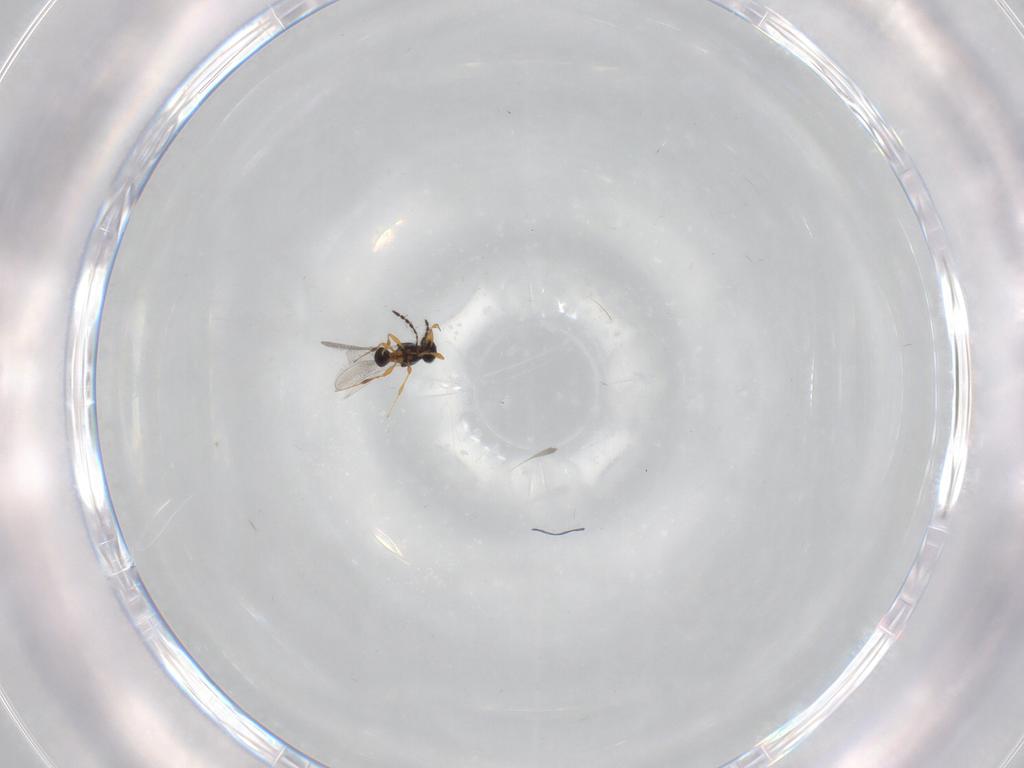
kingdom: Animalia
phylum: Arthropoda
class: Insecta
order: Hymenoptera
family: Platygastridae
